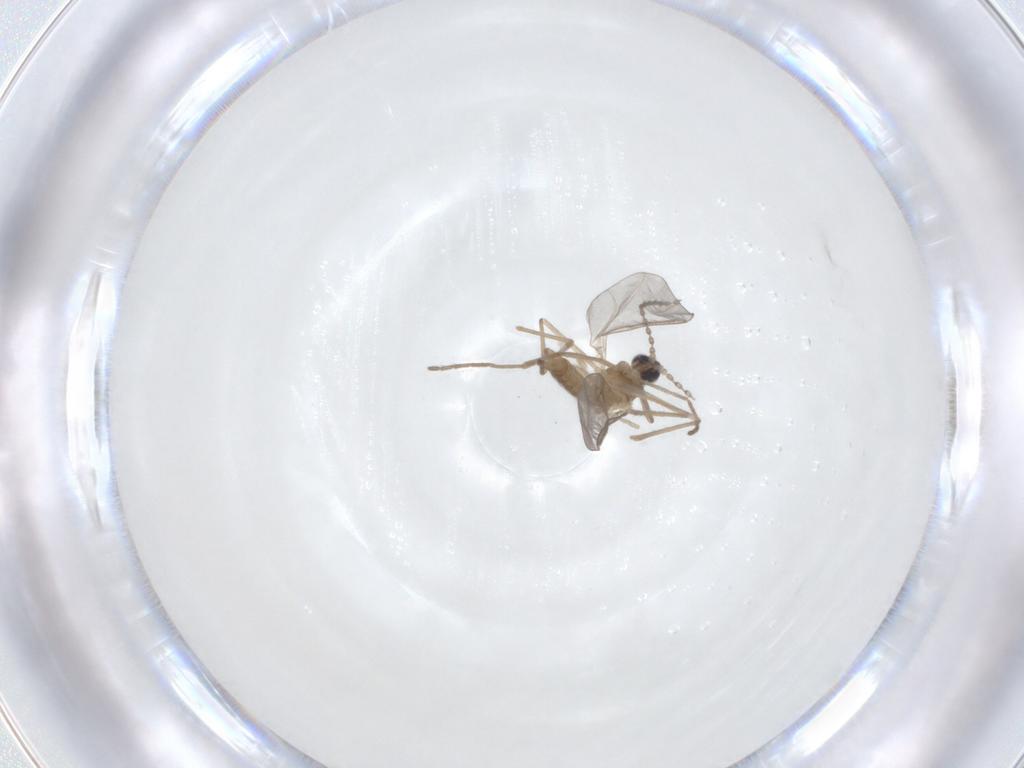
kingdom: Animalia
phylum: Arthropoda
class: Insecta
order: Diptera
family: Cecidomyiidae
